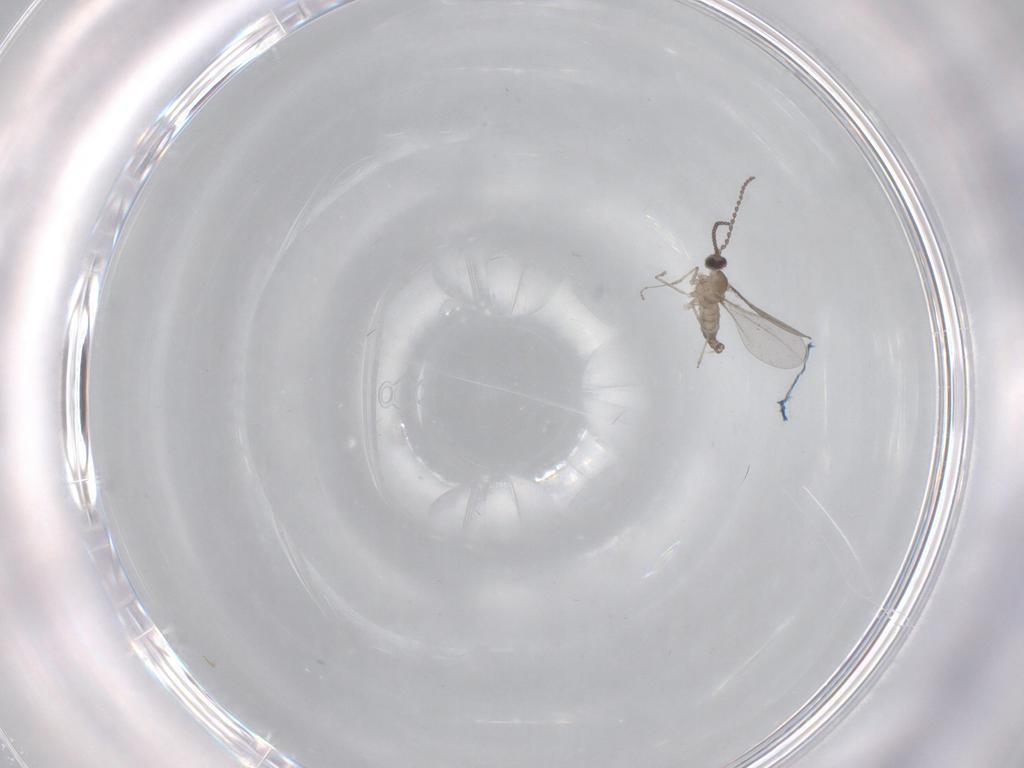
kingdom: Animalia
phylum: Arthropoda
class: Insecta
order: Diptera
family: Cecidomyiidae
